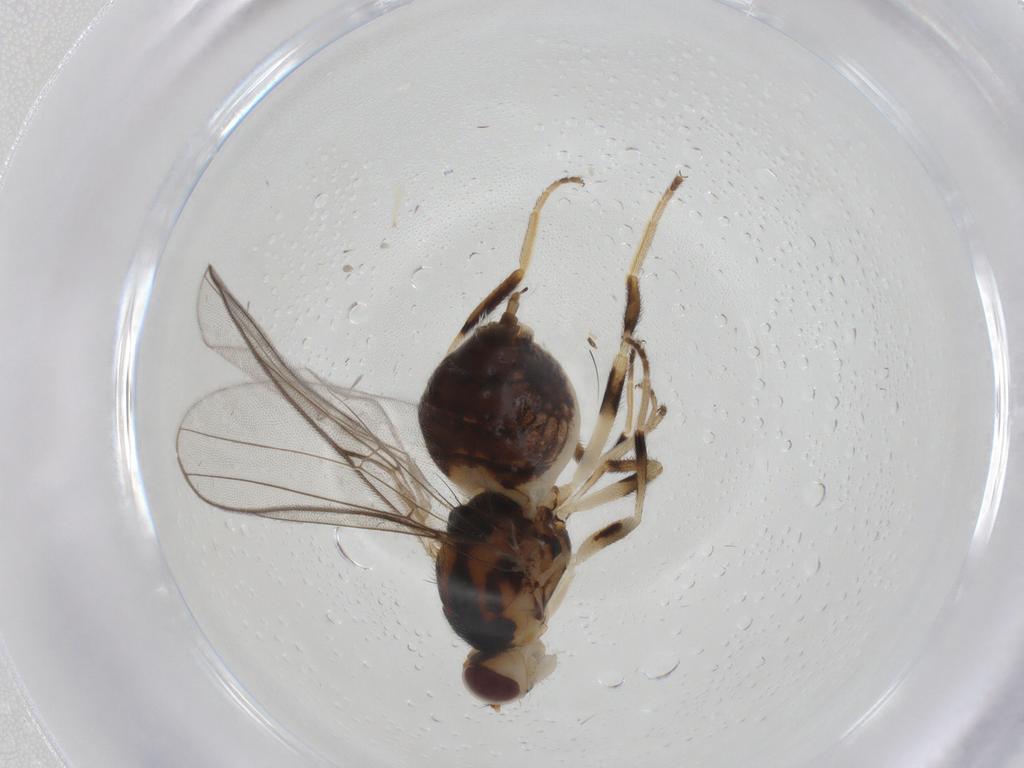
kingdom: Animalia
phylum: Arthropoda
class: Insecta
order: Diptera
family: Chloropidae
